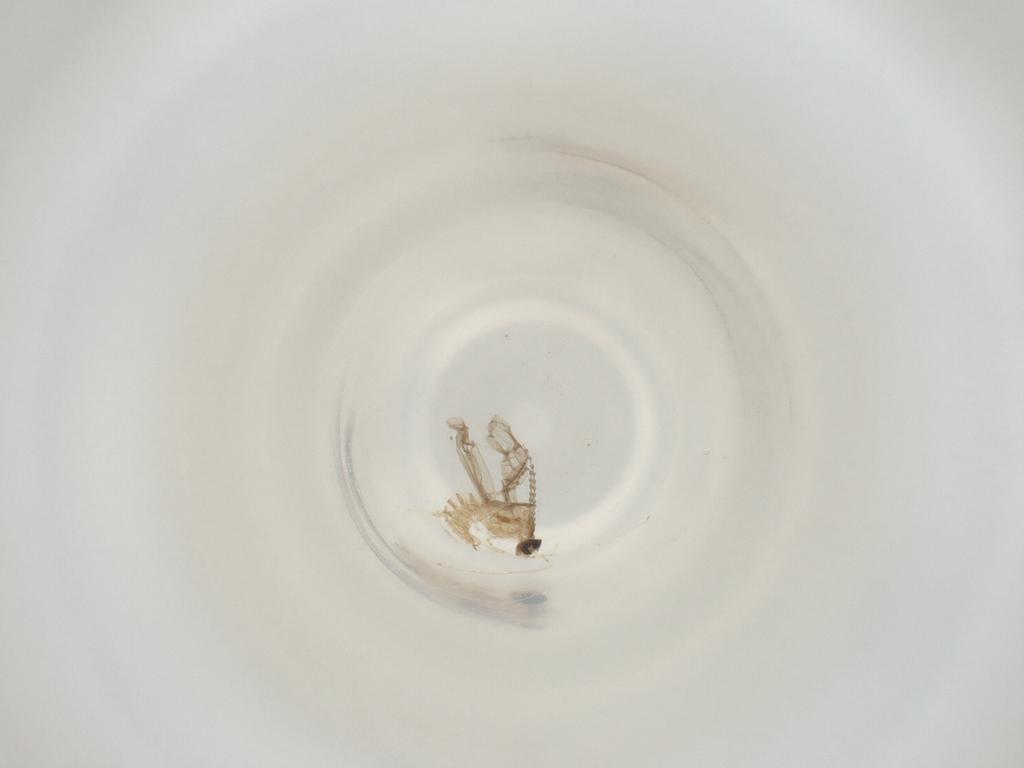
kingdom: Animalia
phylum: Arthropoda
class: Insecta
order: Diptera
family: Cecidomyiidae
